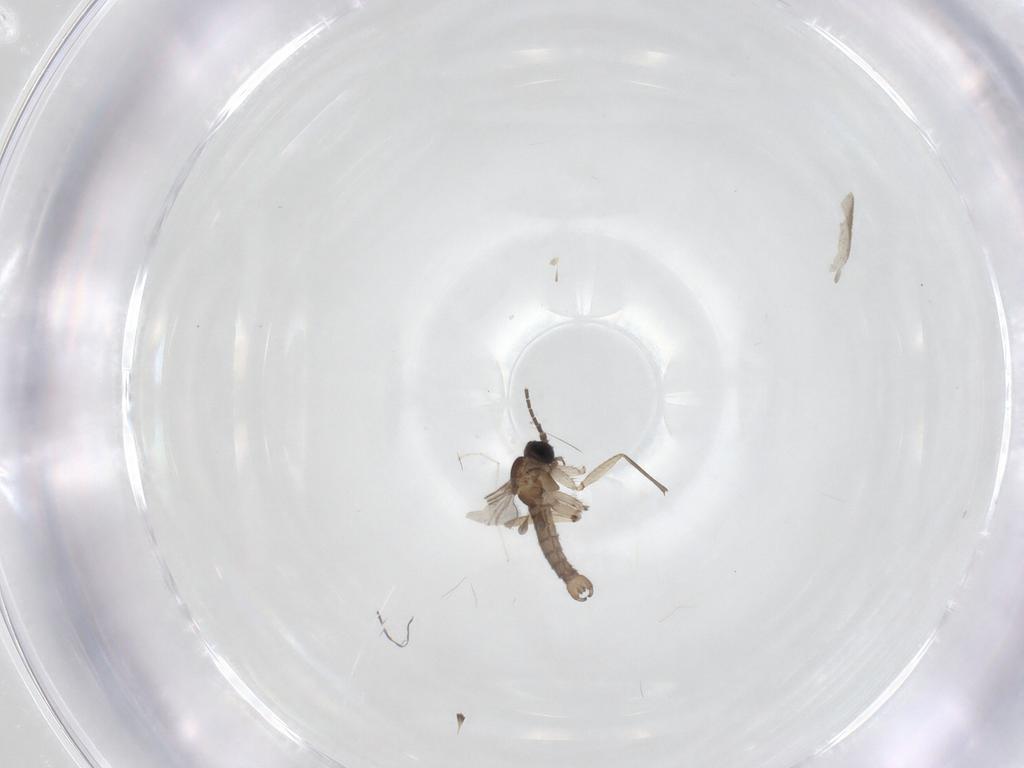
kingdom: Animalia
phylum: Arthropoda
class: Insecta
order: Diptera
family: Sciaridae
